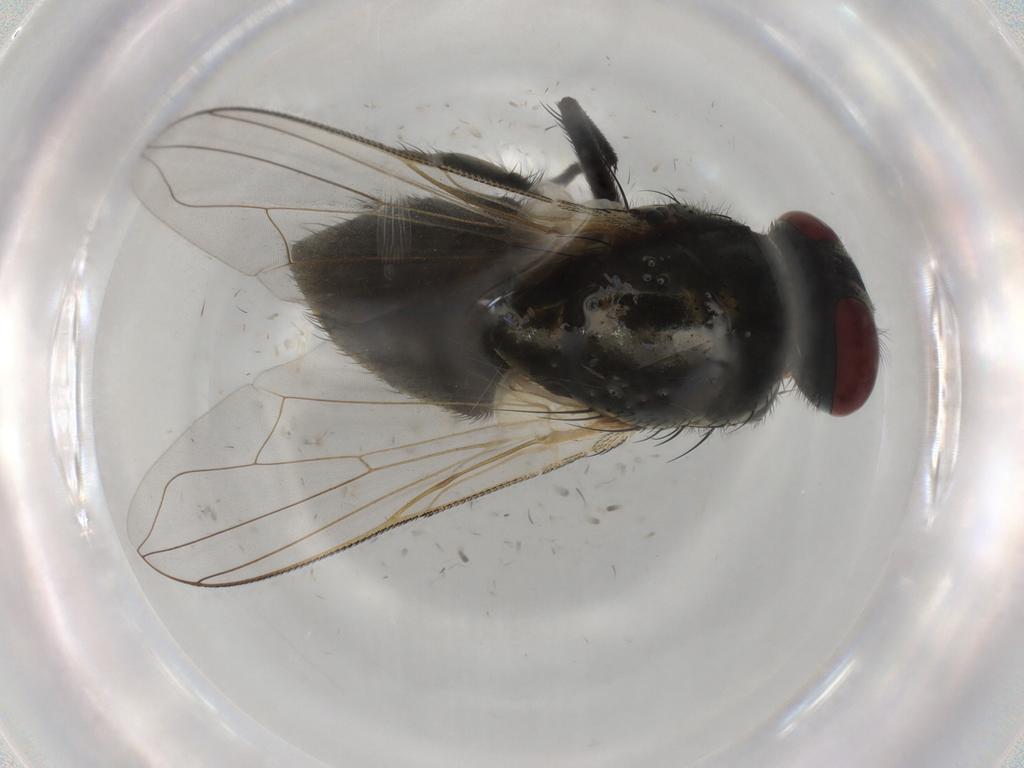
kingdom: Animalia
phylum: Arthropoda
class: Insecta
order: Diptera
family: Muscidae
